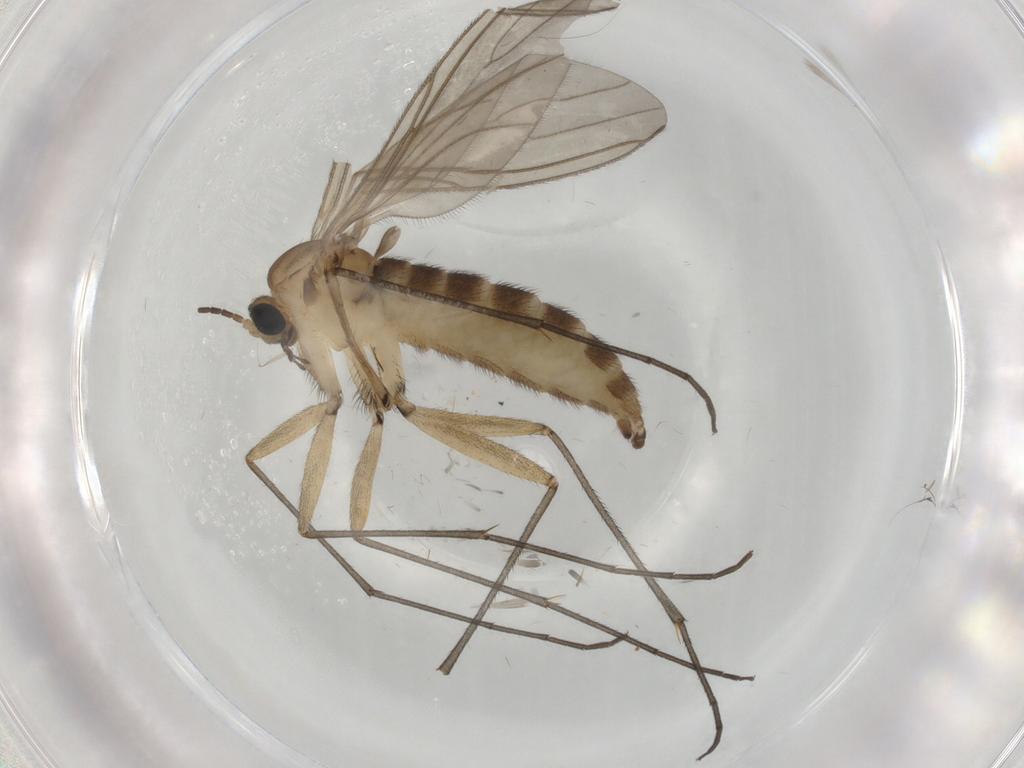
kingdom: Animalia
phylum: Arthropoda
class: Insecta
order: Diptera
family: Sciaridae
